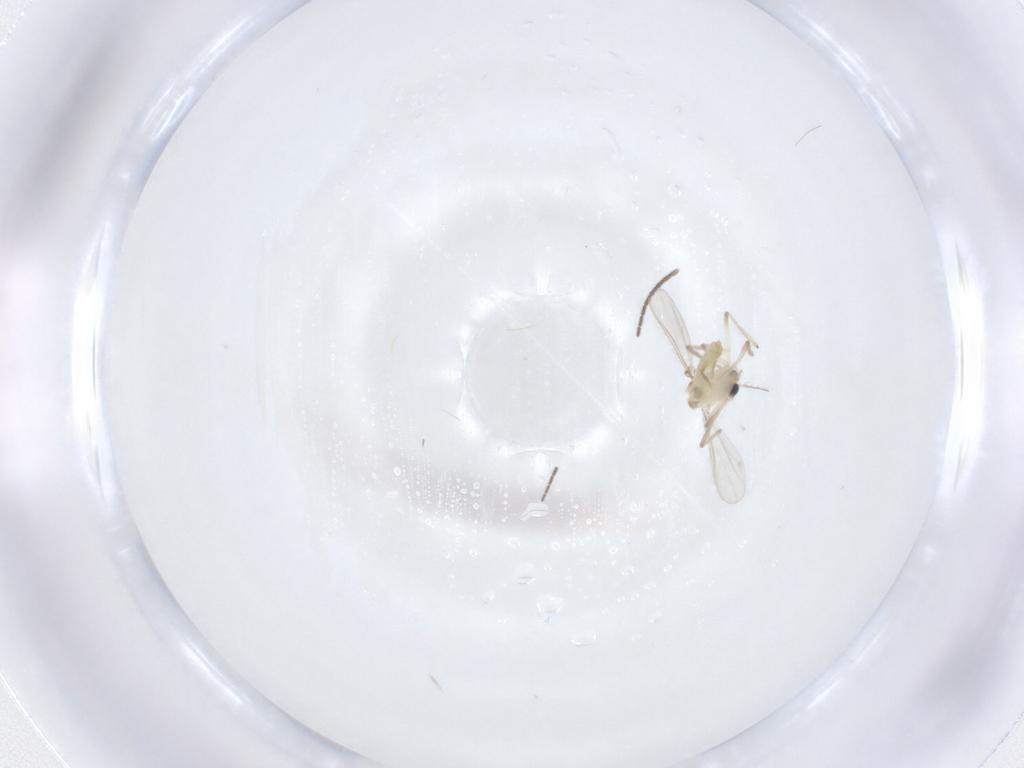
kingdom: Animalia
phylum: Arthropoda
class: Insecta
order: Diptera
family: Chironomidae
